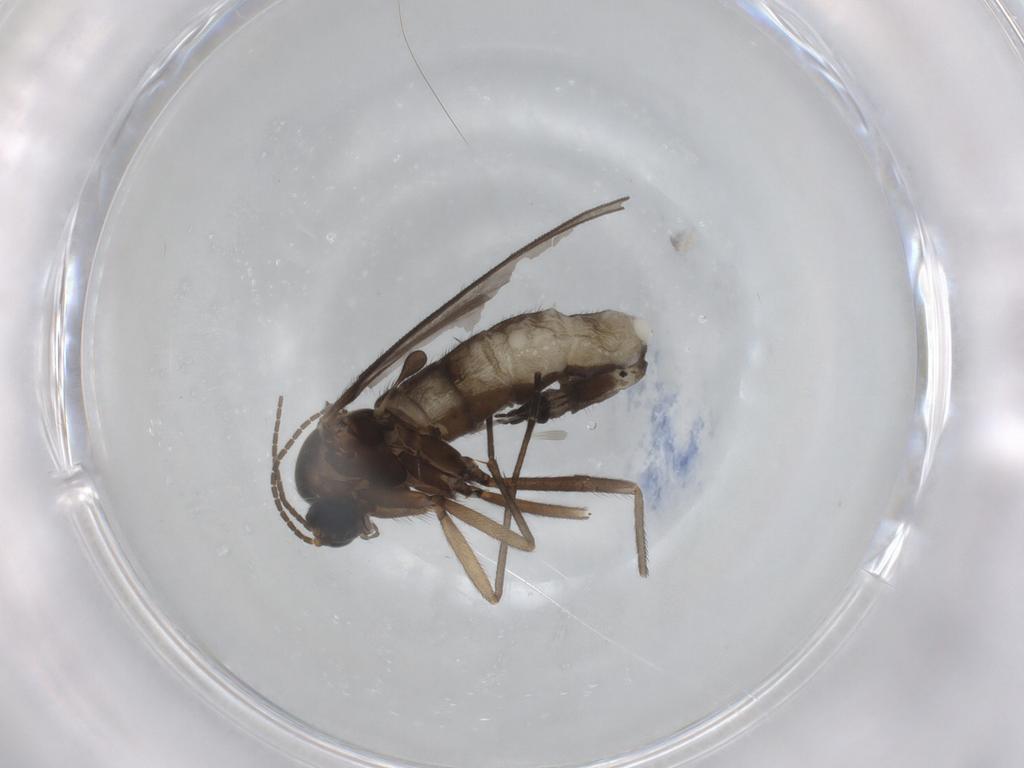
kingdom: Animalia
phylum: Arthropoda
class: Insecta
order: Diptera
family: Sciaridae
